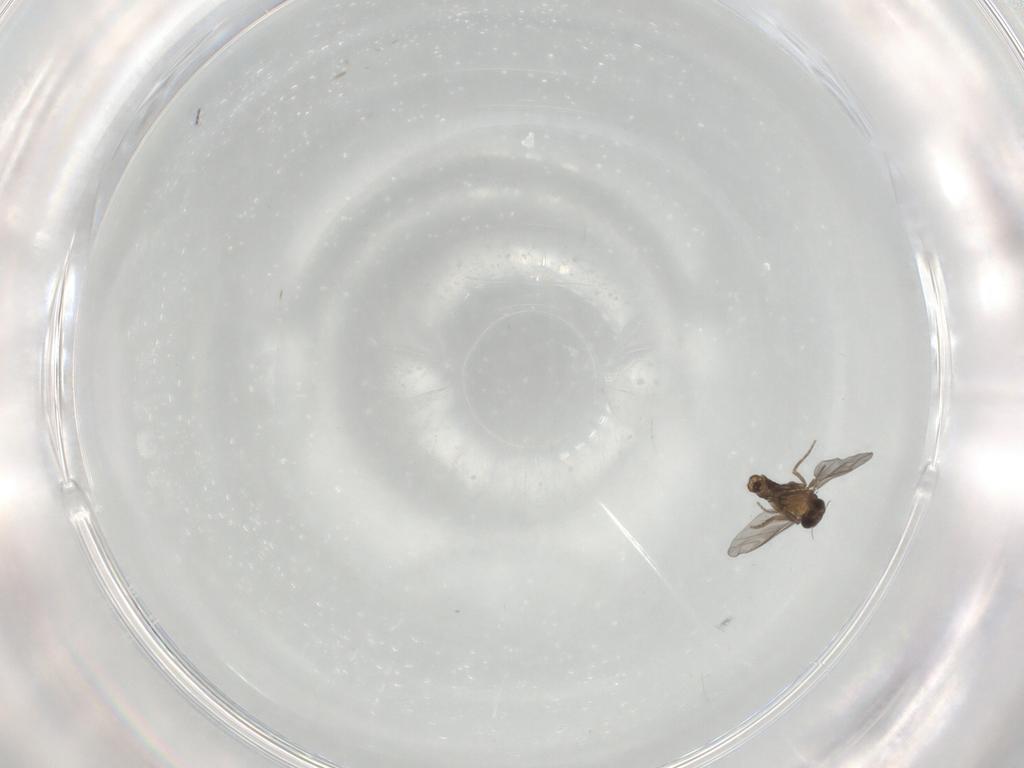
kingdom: Animalia
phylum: Arthropoda
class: Insecta
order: Diptera
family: Phoridae
